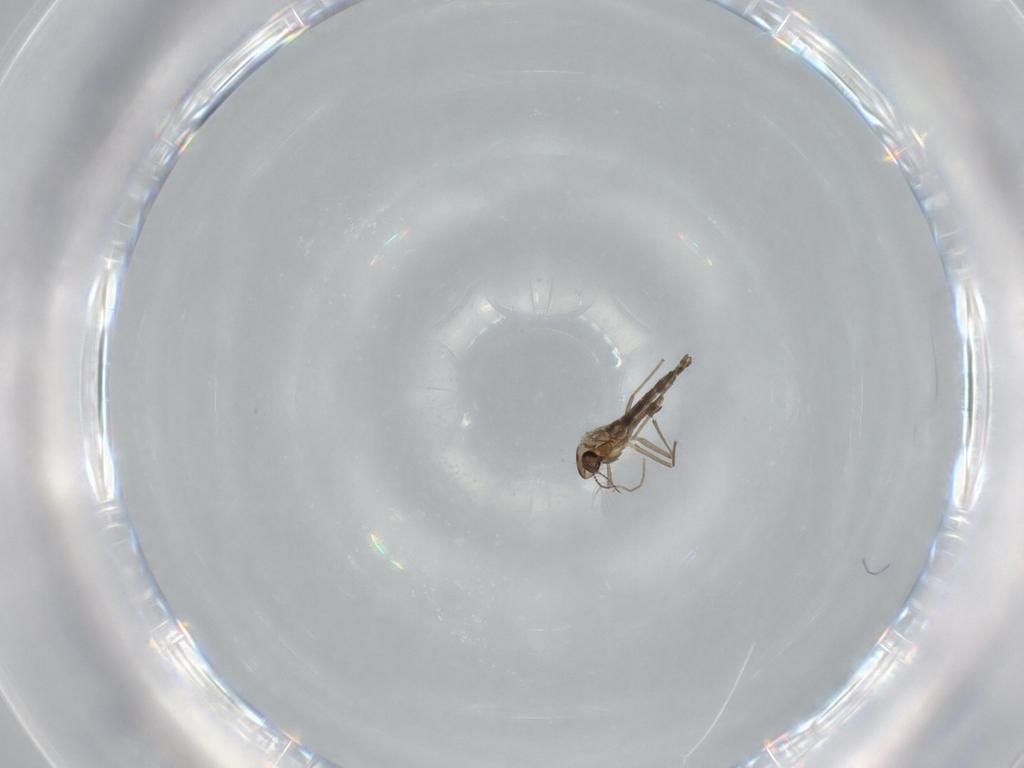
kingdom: Animalia
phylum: Arthropoda
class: Insecta
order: Diptera
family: Chironomidae
